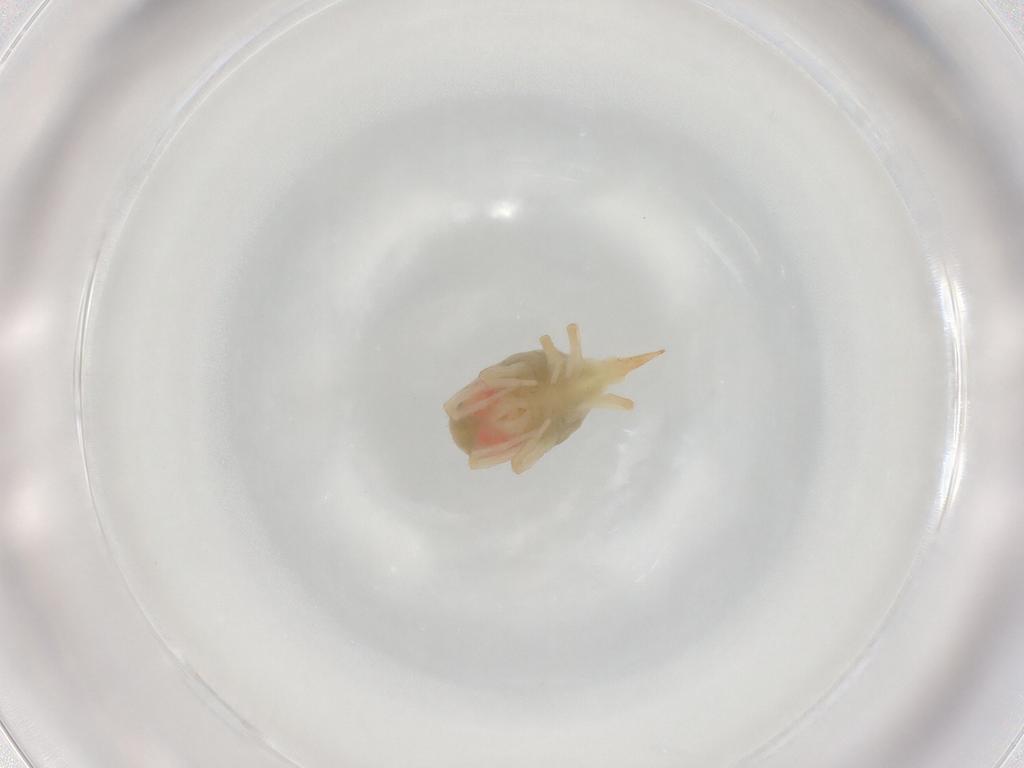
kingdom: Animalia
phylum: Arthropoda
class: Arachnida
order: Trombidiformes
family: Bdellidae
